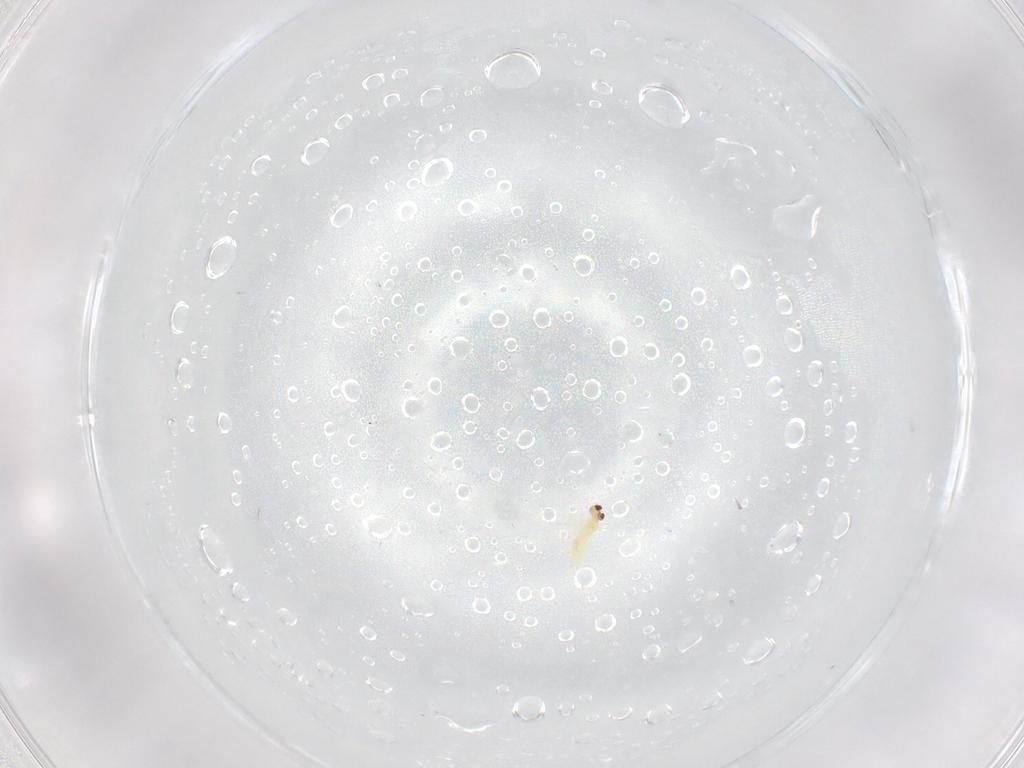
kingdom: Animalia
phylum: Arthropoda
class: Insecta
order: Hymenoptera
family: Mymaridae
